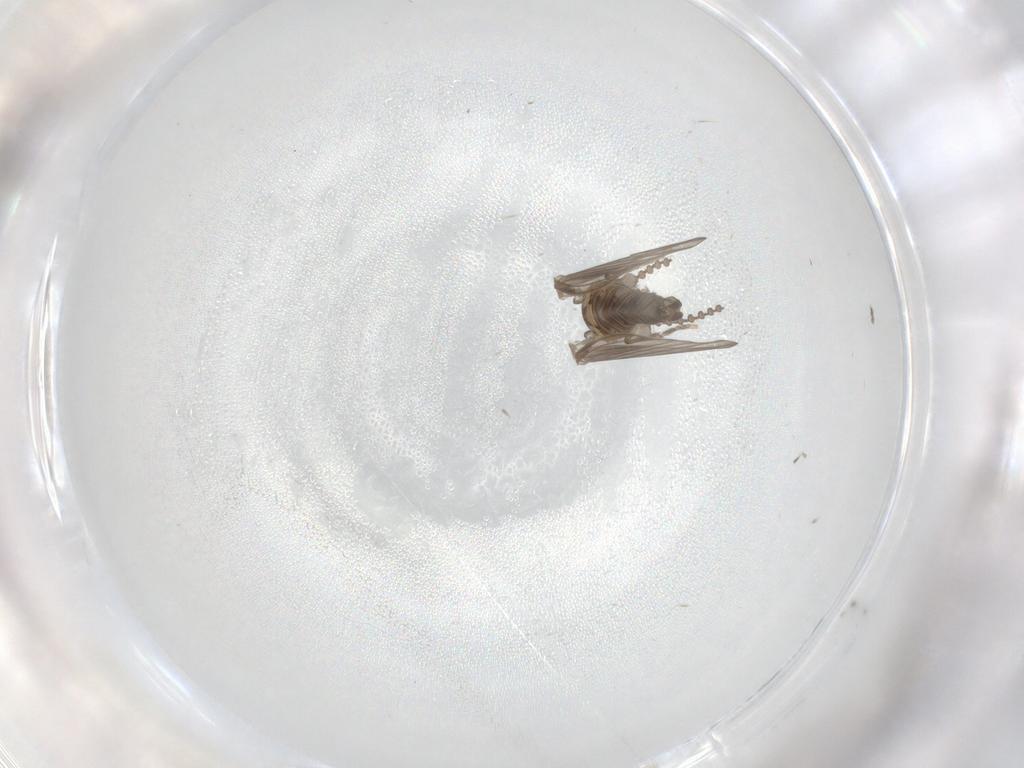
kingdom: Animalia
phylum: Arthropoda
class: Insecta
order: Diptera
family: Psychodidae
